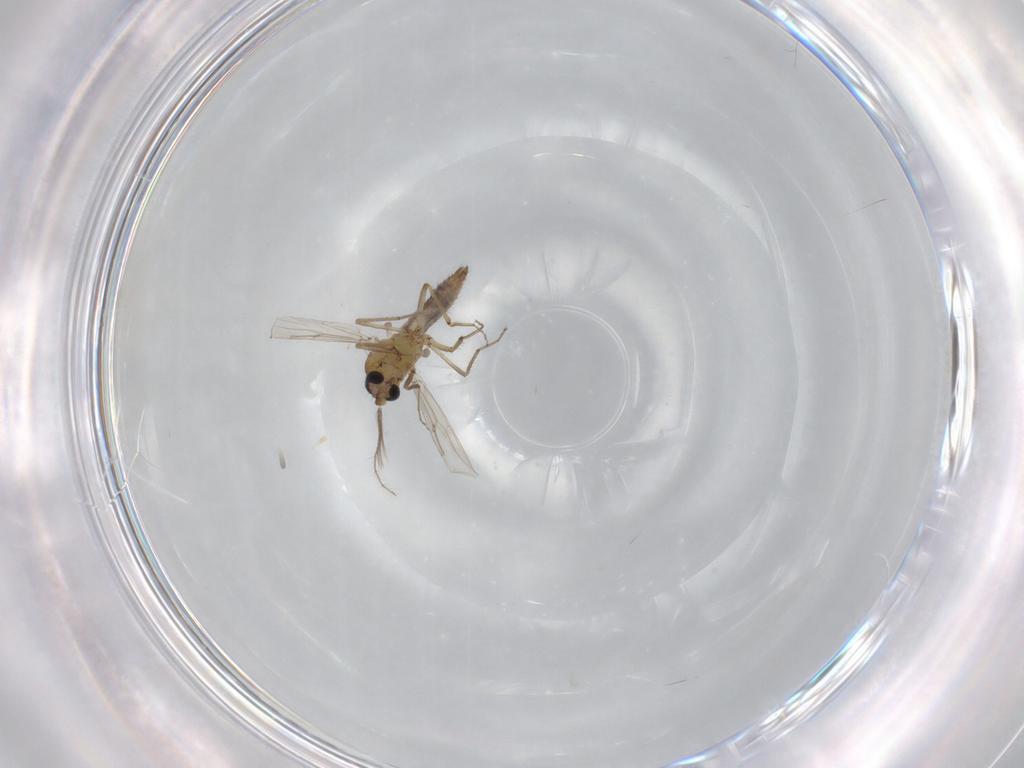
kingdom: Animalia
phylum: Arthropoda
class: Insecta
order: Diptera
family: Ceratopogonidae
